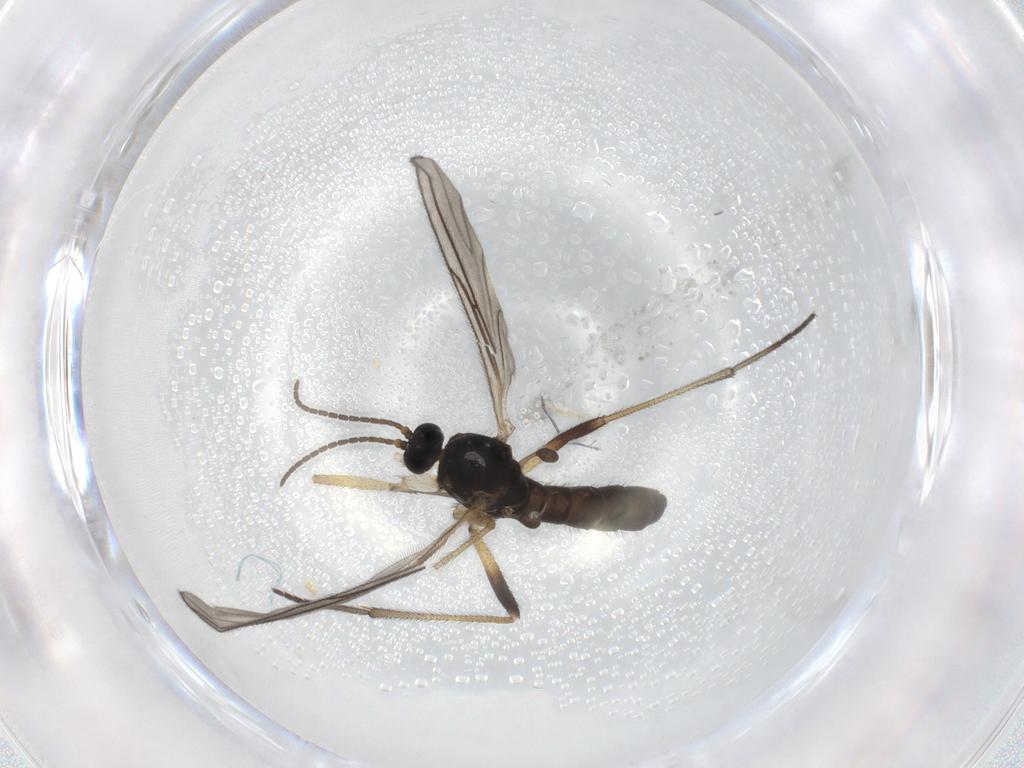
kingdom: Animalia
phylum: Arthropoda
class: Insecta
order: Diptera
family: Sciaridae
